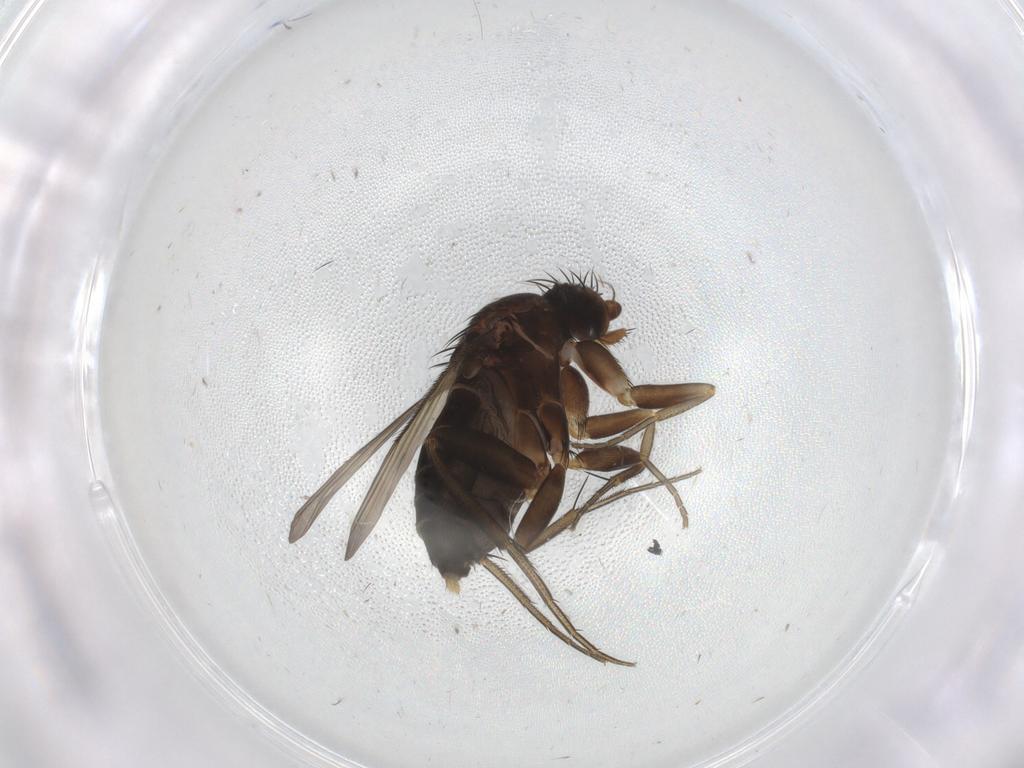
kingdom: Animalia
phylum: Arthropoda
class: Insecta
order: Diptera
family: Phoridae
